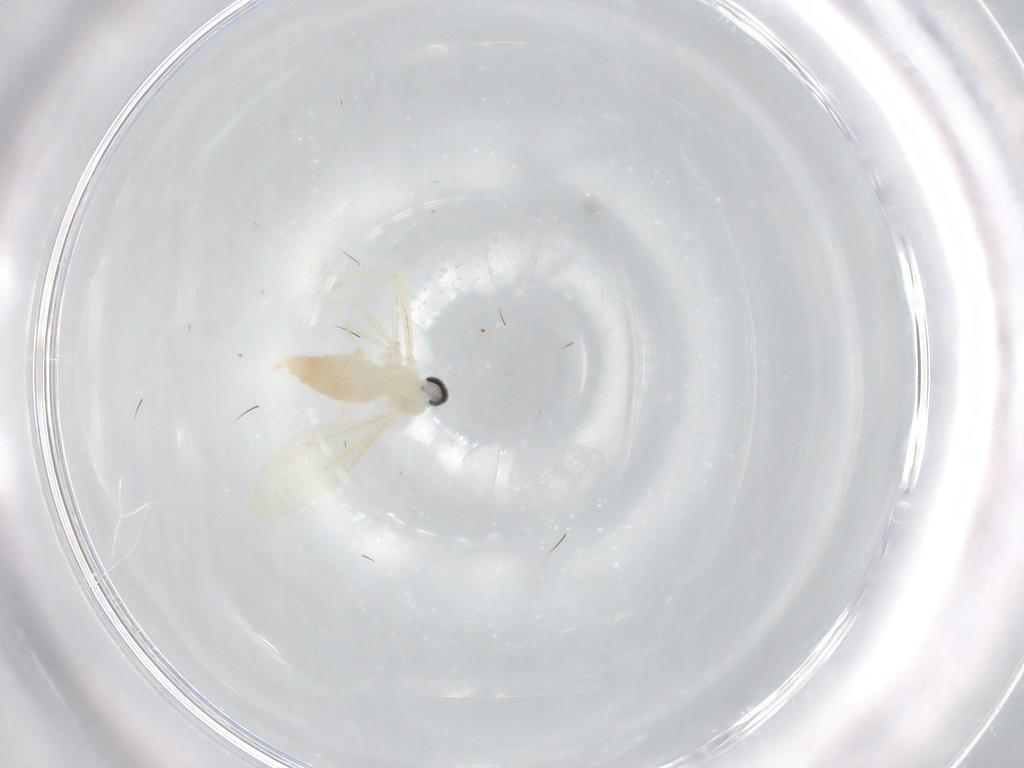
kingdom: Animalia
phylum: Arthropoda
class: Insecta
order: Diptera
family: Cecidomyiidae
